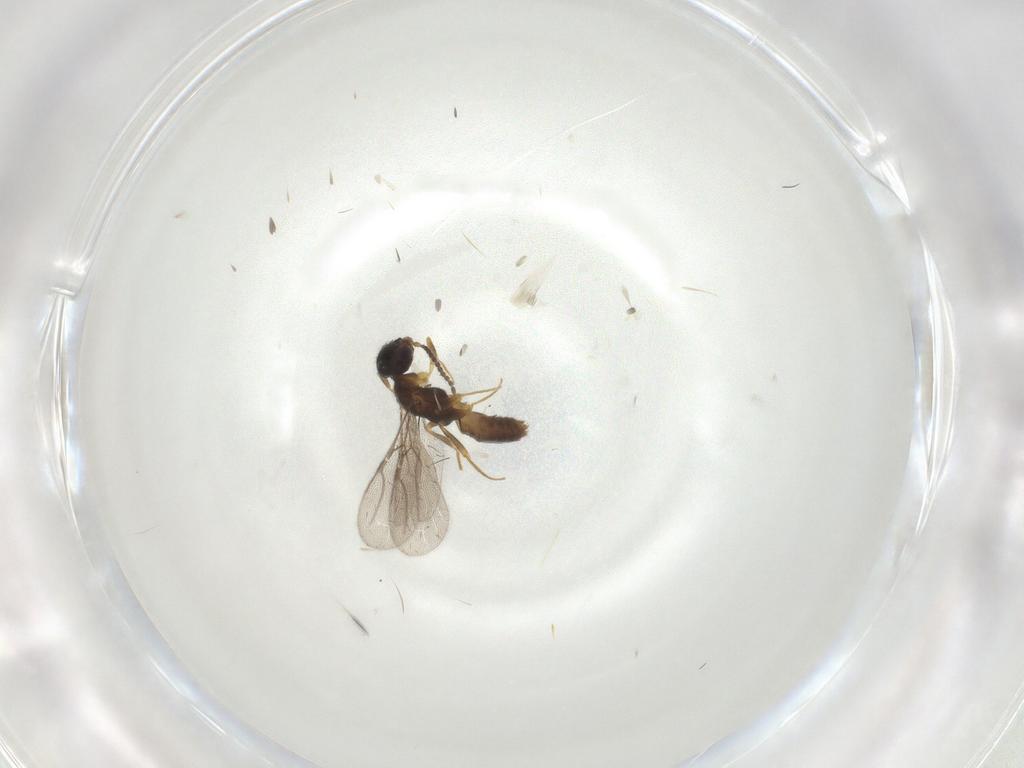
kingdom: Animalia
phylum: Arthropoda
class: Insecta
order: Hymenoptera
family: Bethylidae
